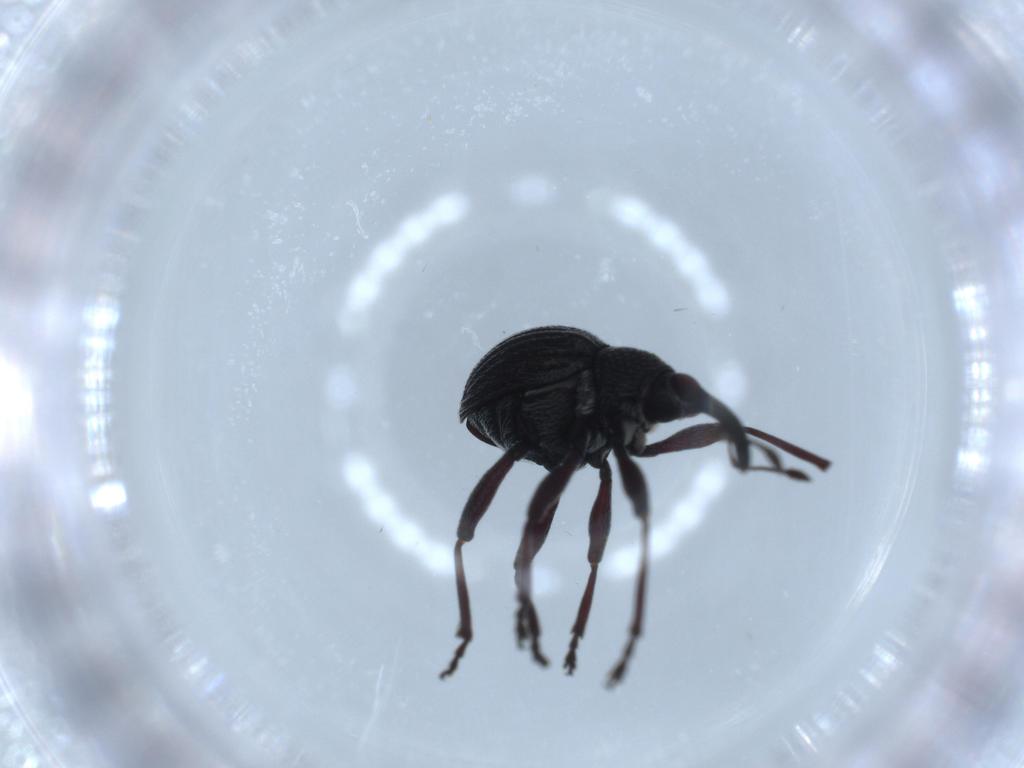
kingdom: Animalia
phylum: Arthropoda
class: Insecta
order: Coleoptera
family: Brentidae
